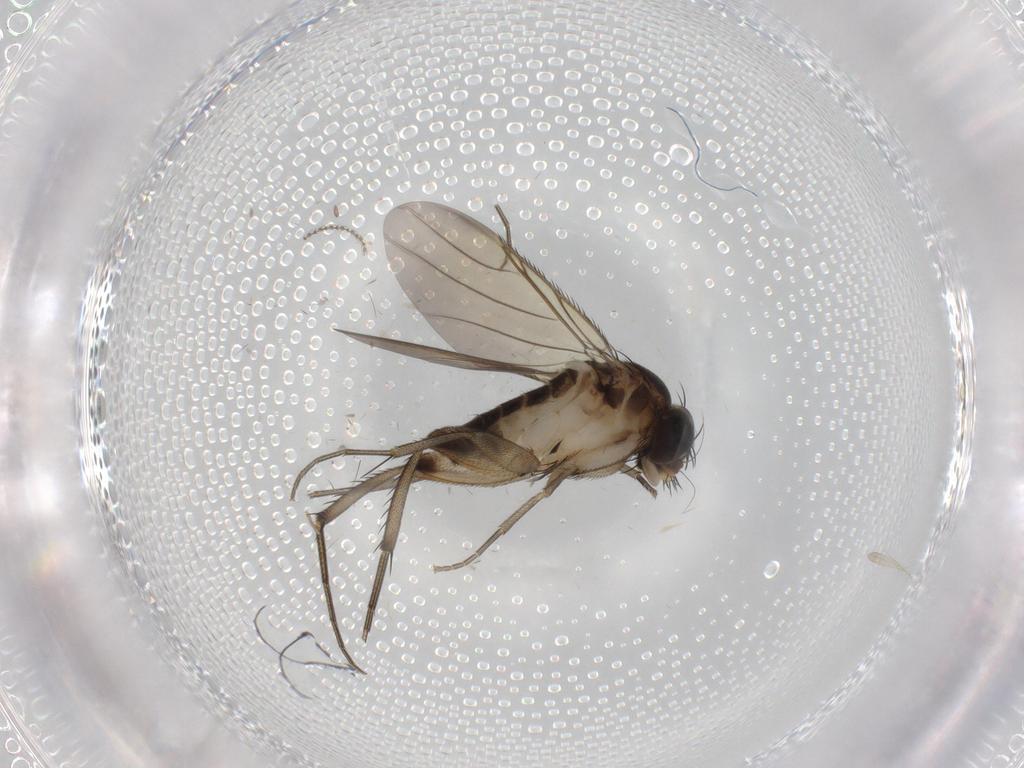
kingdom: Animalia
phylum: Arthropoda
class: Insecta
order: Diptera
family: Phoridae
